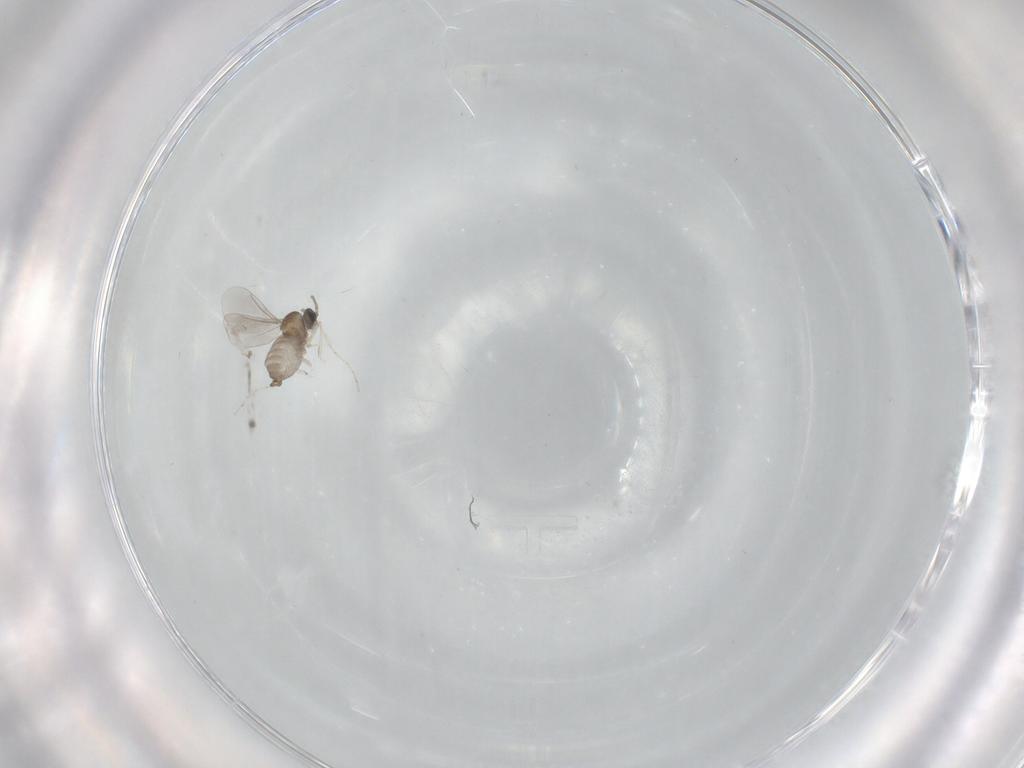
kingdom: Animalia
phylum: Arthropoda
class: Insecta
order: Diptera
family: Cecidomyiidae
